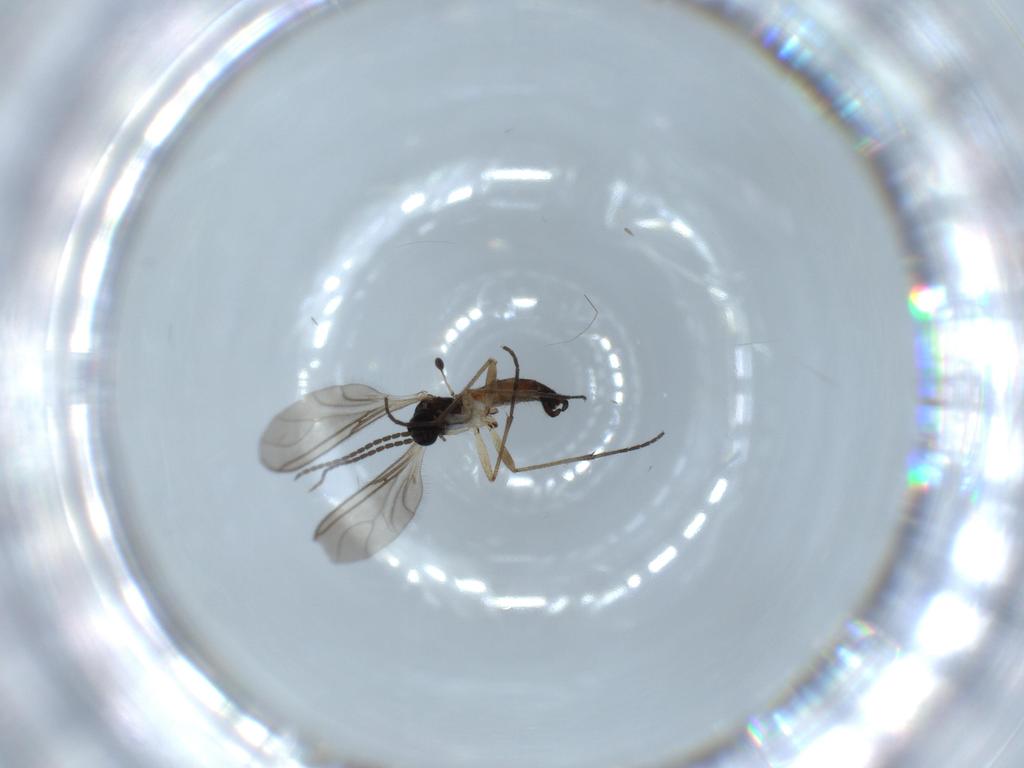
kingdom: Animalia
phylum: Arthropoda
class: Insecta
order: Diptera
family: Sciaridae
